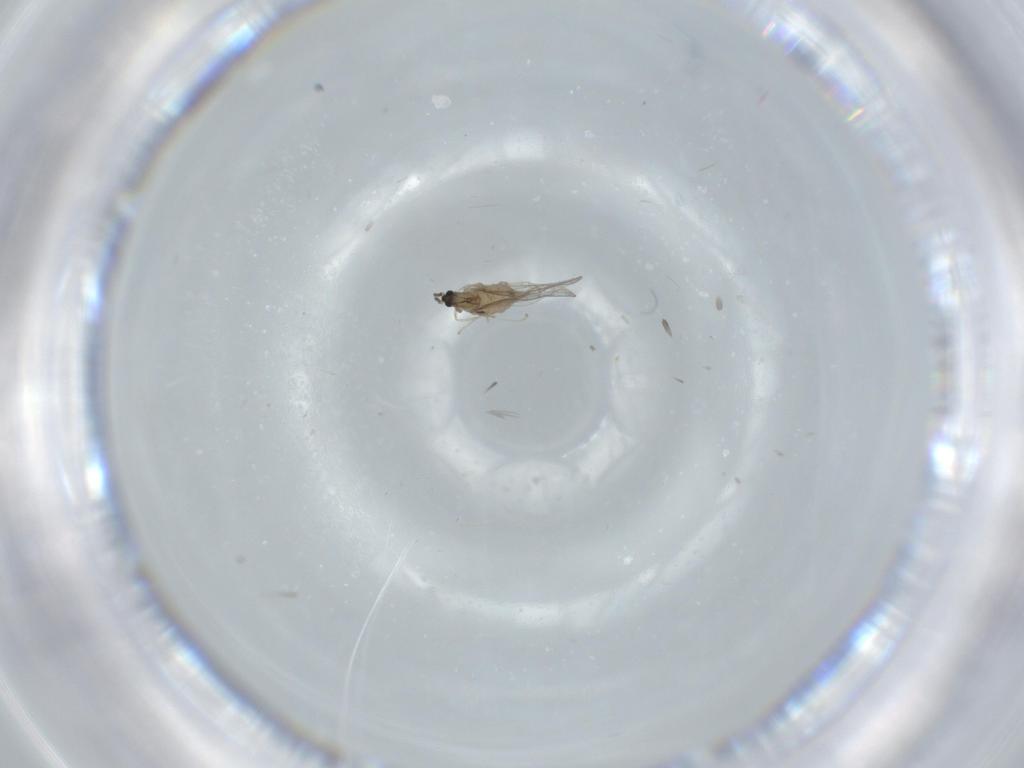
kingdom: Animalia
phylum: Arthropoda
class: Insecta
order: Diptera
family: Cecidomyiidae
